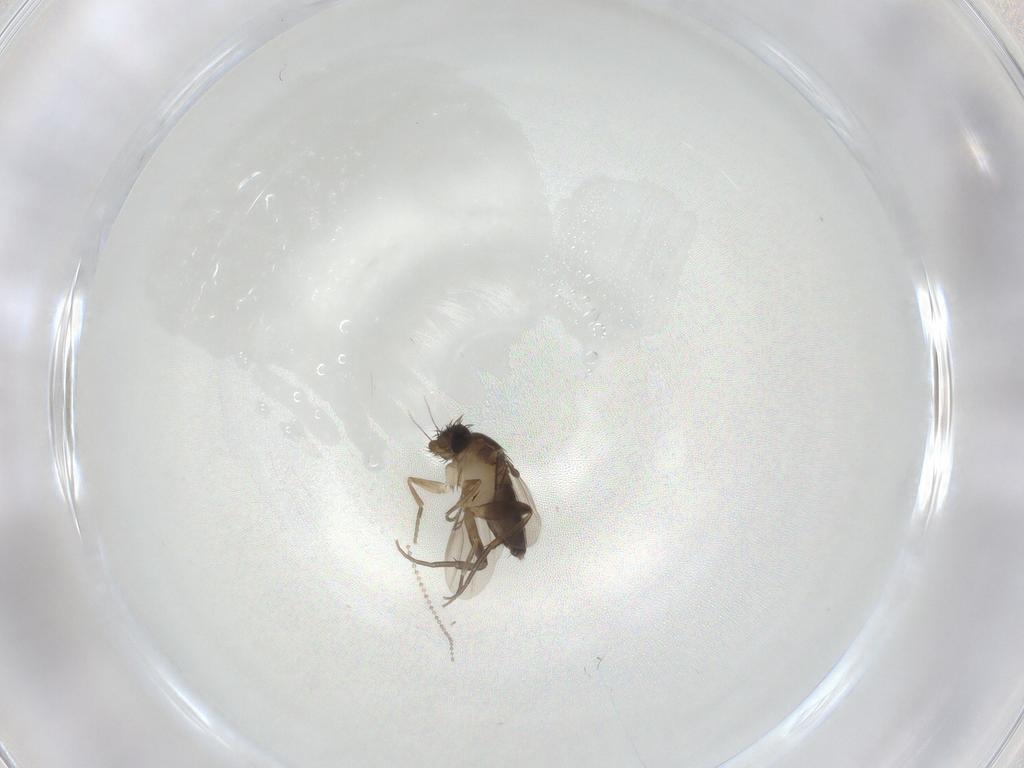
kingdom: Animalia
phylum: Arthropoda
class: Insecta
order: Diptera
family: Phoridae
